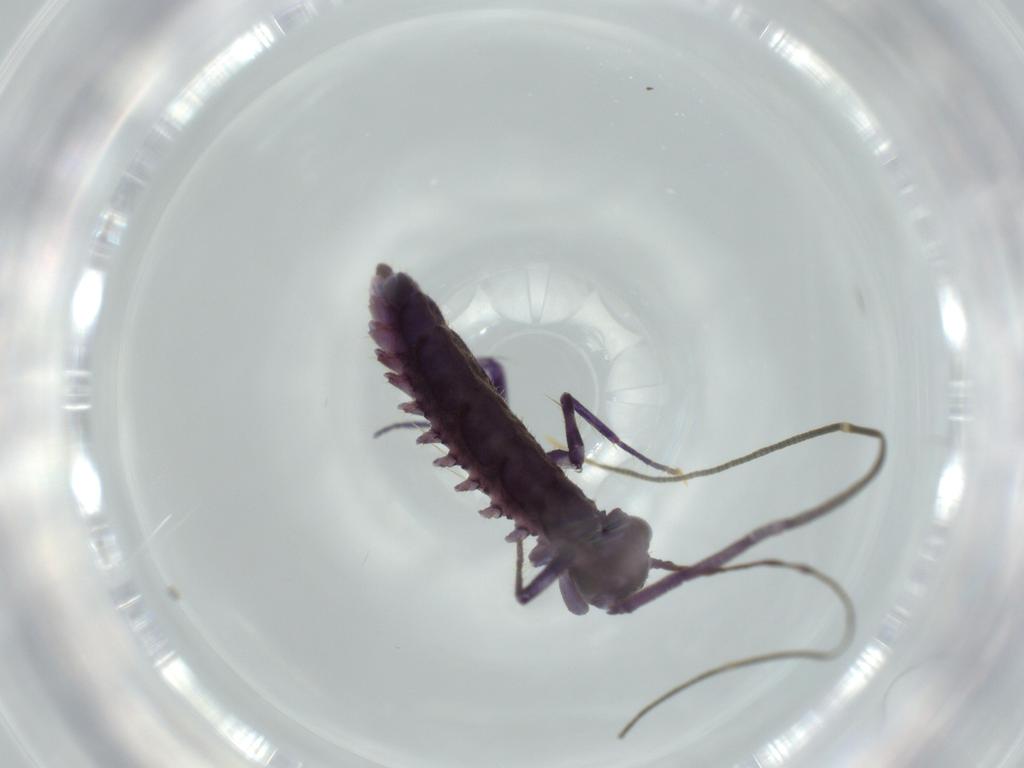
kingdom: Animalia
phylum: Arthropoda
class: Chilopoda
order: Scutigeromorpha
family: Scutigeridae
